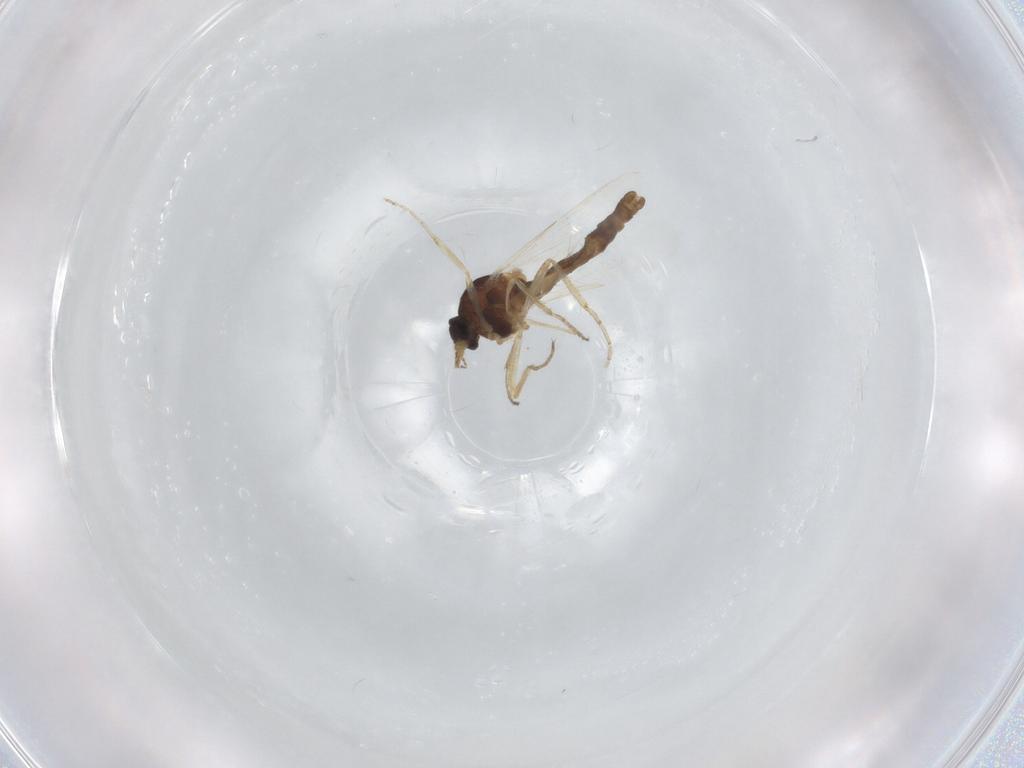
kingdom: Animalia
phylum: Arthropoda
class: Insecta
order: Diptera
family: Ceratopogonidae
